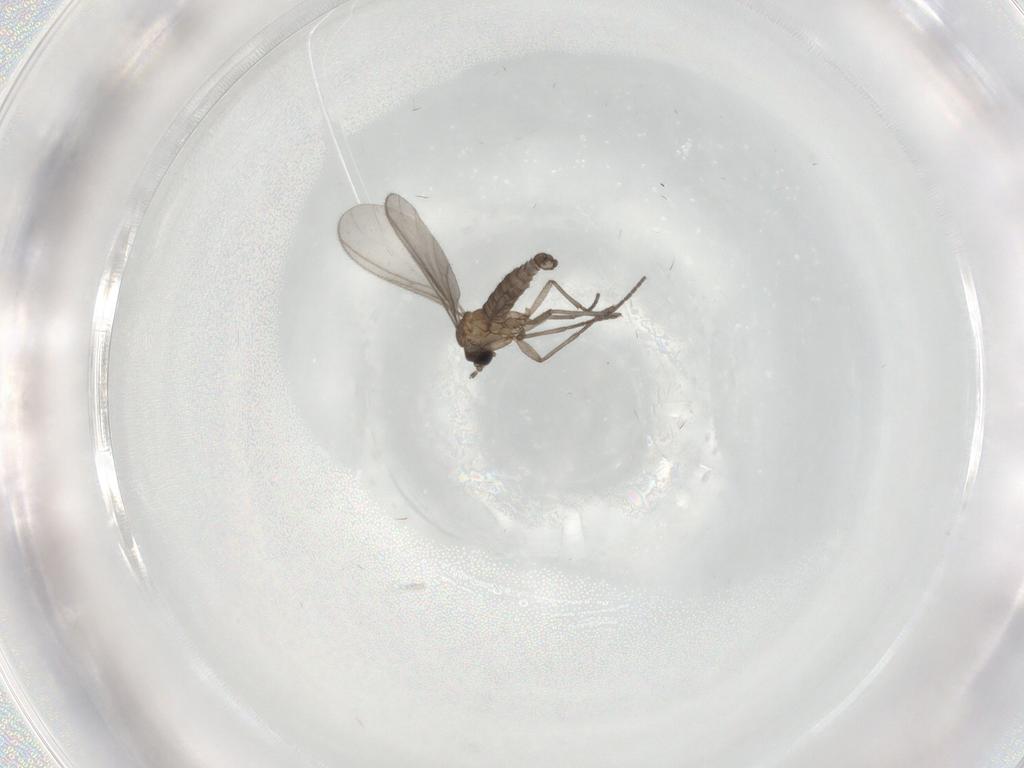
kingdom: Animalia
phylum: Arthropoda
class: Insecta
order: Diptera
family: Sciaridae
